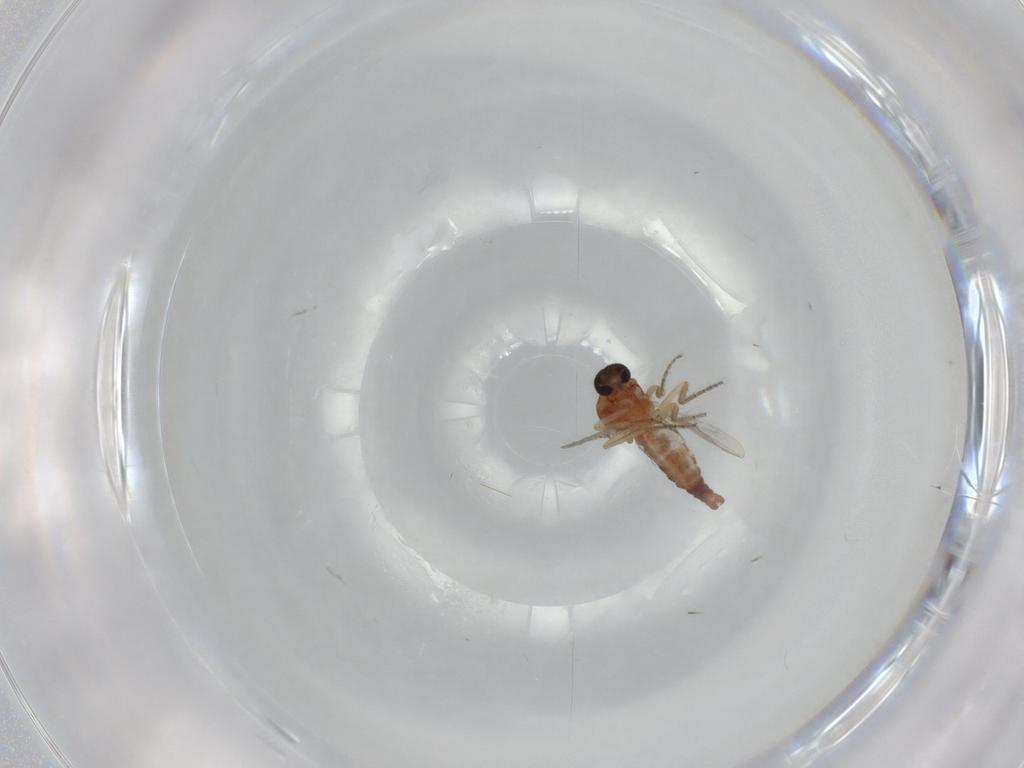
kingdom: Animalia
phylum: Arthropoda
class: Insecta
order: Diptera
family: Ceratopogonidae
